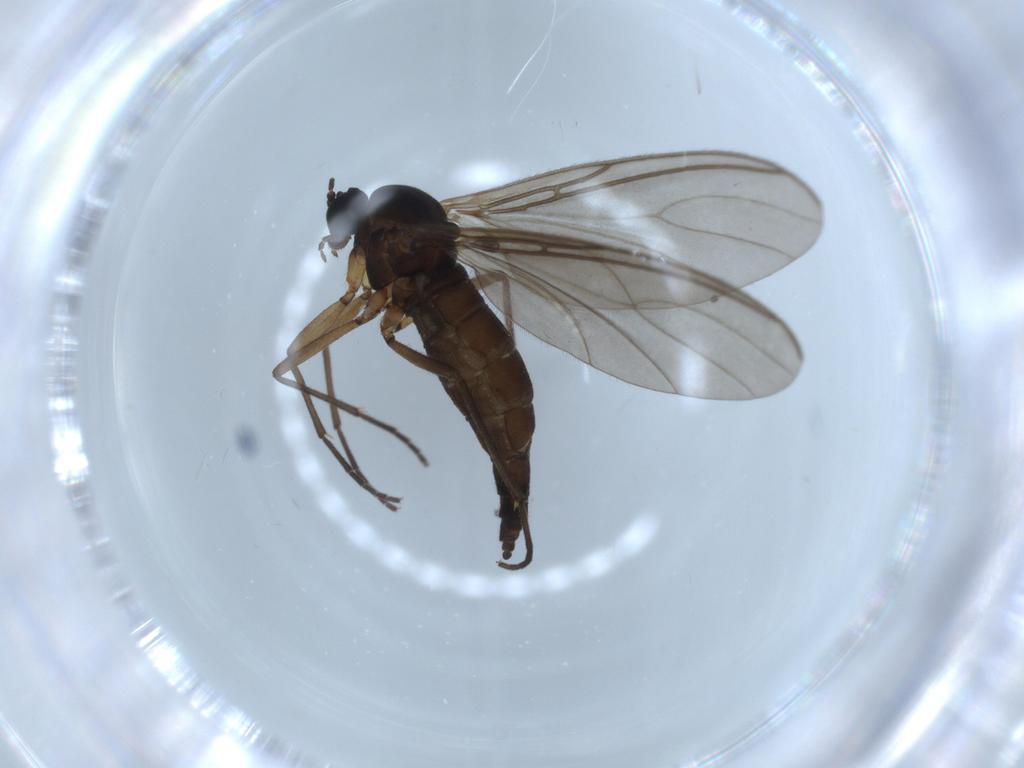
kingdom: Animalia
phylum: Arthropoda
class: Insecta
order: Diptera
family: Sciaridae
